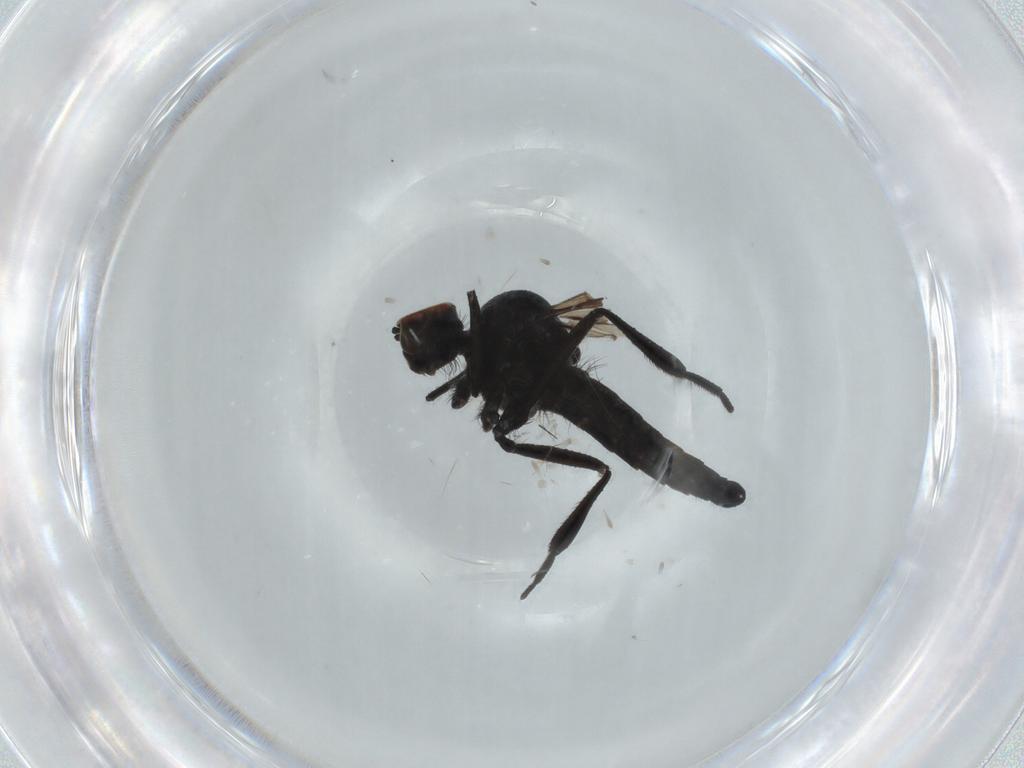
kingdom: Animalia
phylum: Arthropoda
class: Insecta
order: Diptera
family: Hybotidae
